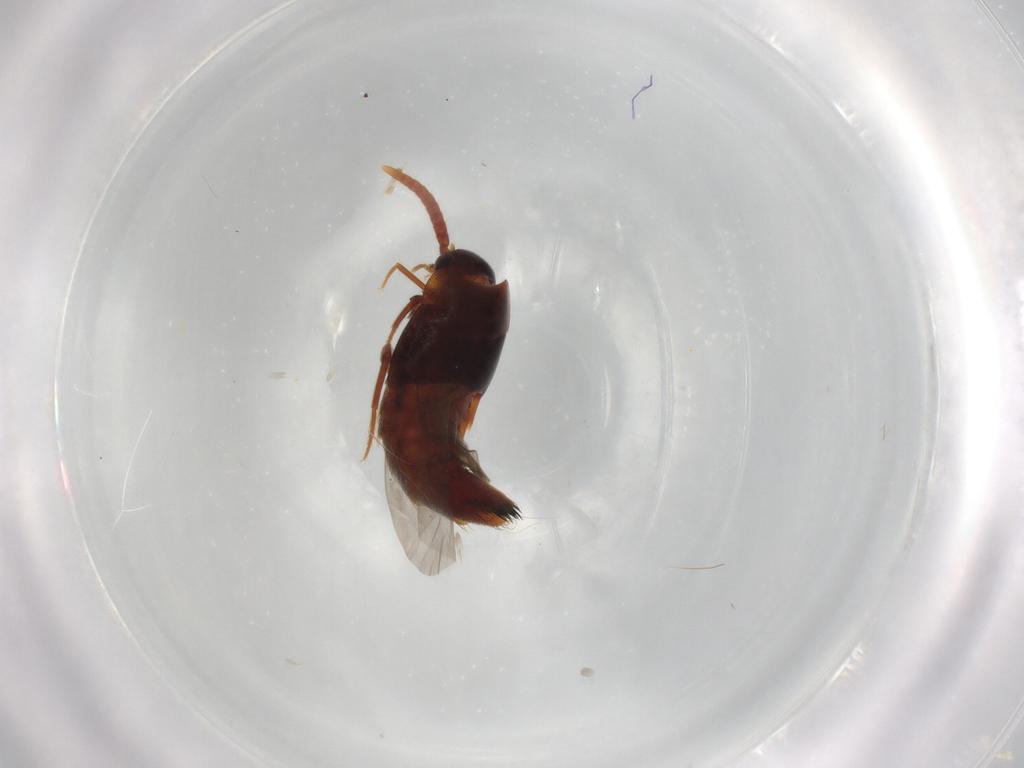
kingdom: Animalia
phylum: Arthropoda
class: Insecta
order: Coleoptera
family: Staphylinidae
